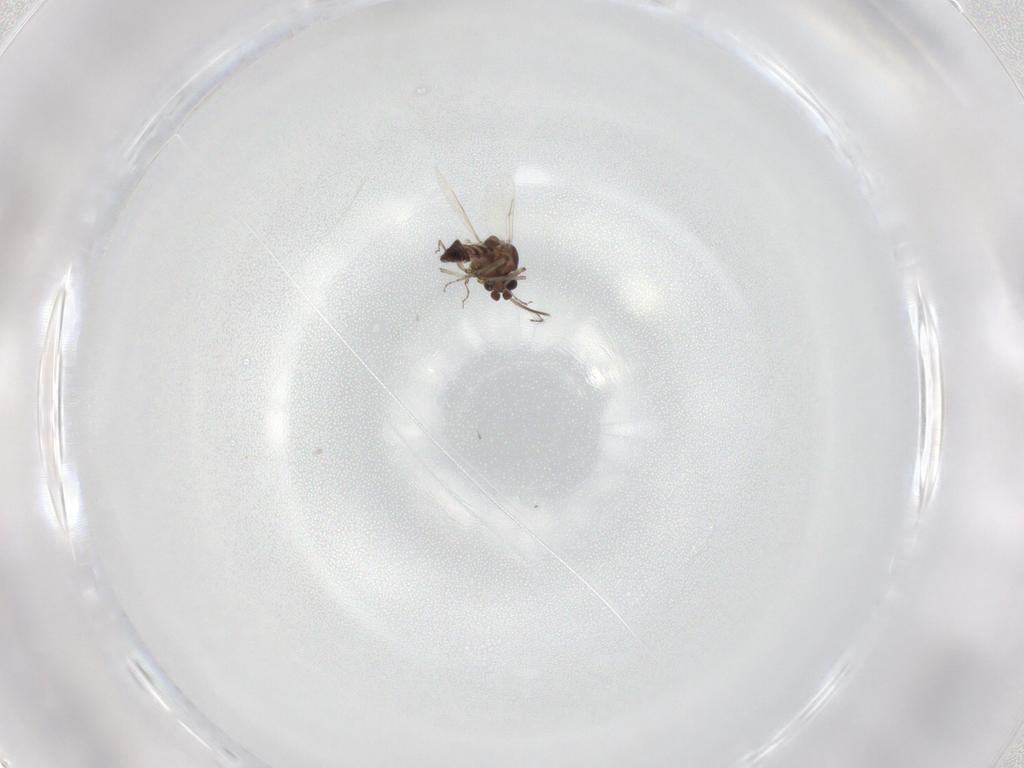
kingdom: Animalia
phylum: Arthropoda
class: Insecta
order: Diptera
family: Ceratopogonidae
